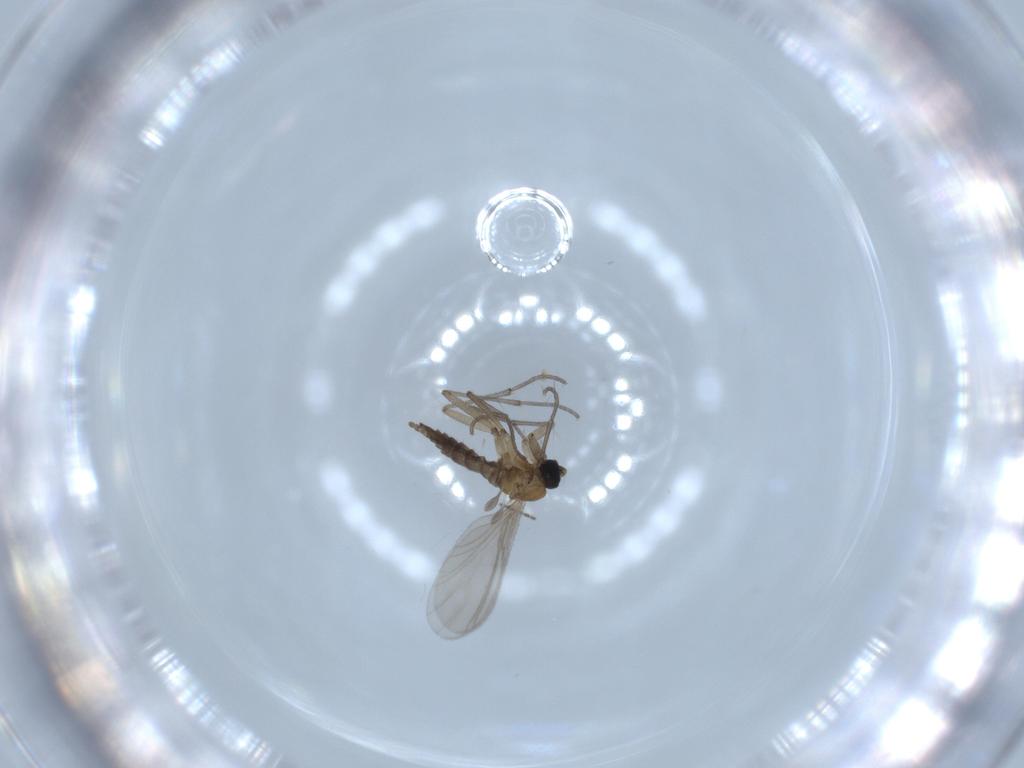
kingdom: Animalia
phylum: Arthropoda
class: Insecta
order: Diptera
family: Sciaridae
